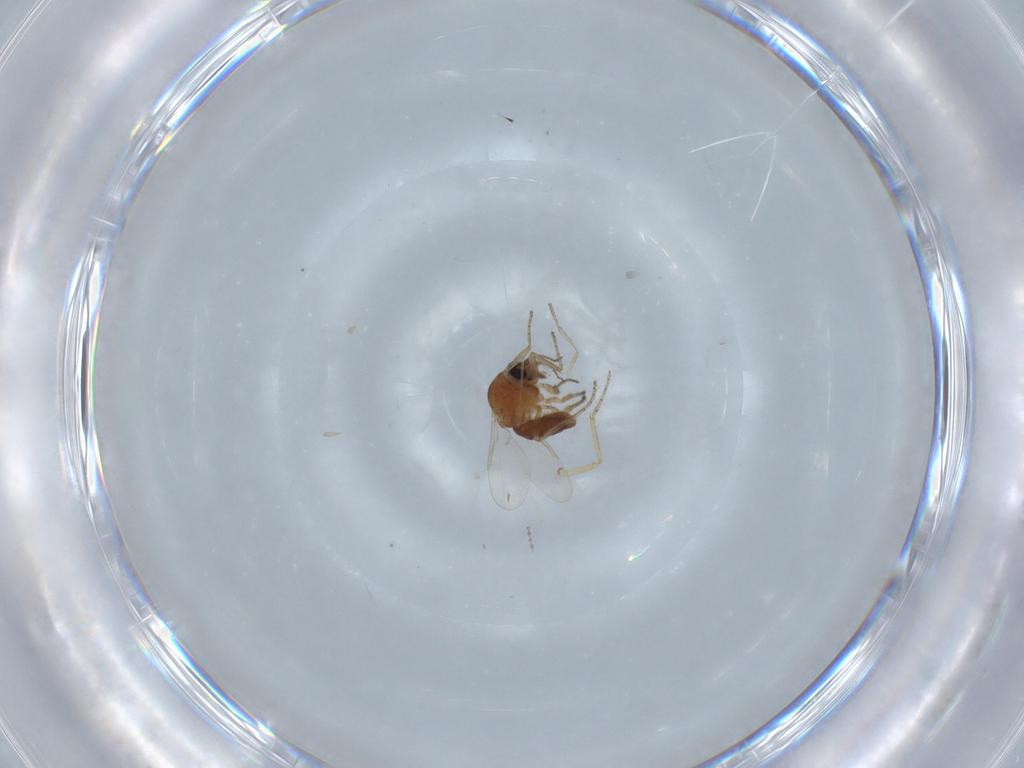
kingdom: Animalia
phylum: Arthropoda
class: Insecta
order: Diptera
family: Ceratopogonidae
